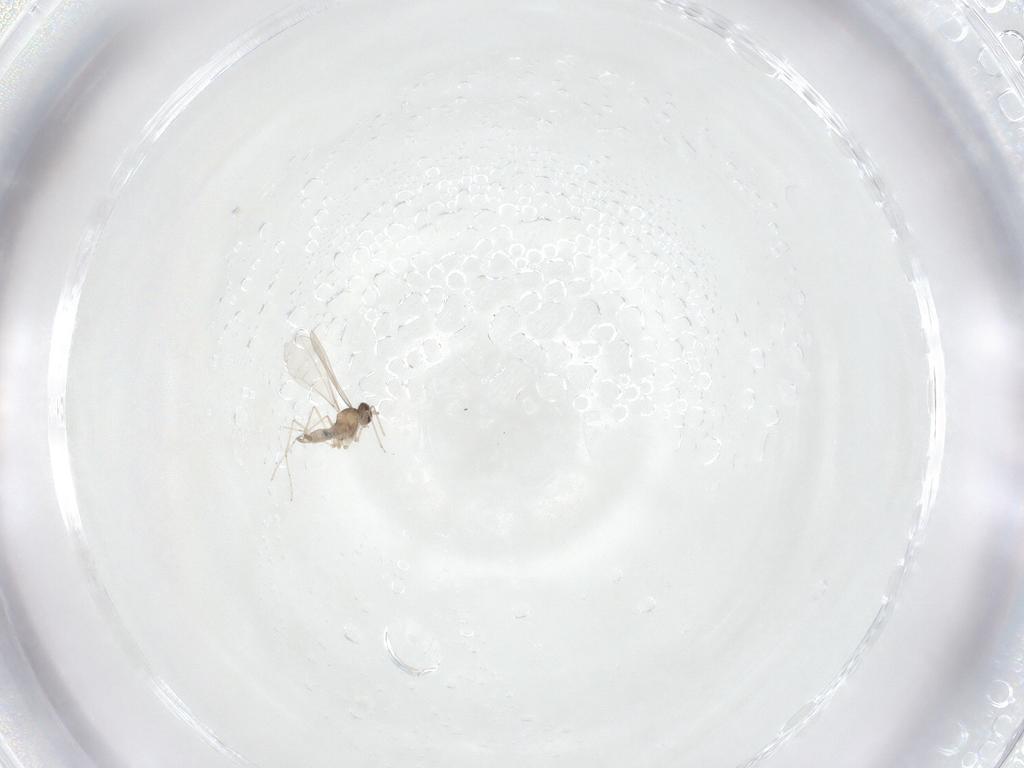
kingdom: Animalia
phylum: Arthropoda
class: Insecta
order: Diptera
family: Cecidomyiidae
